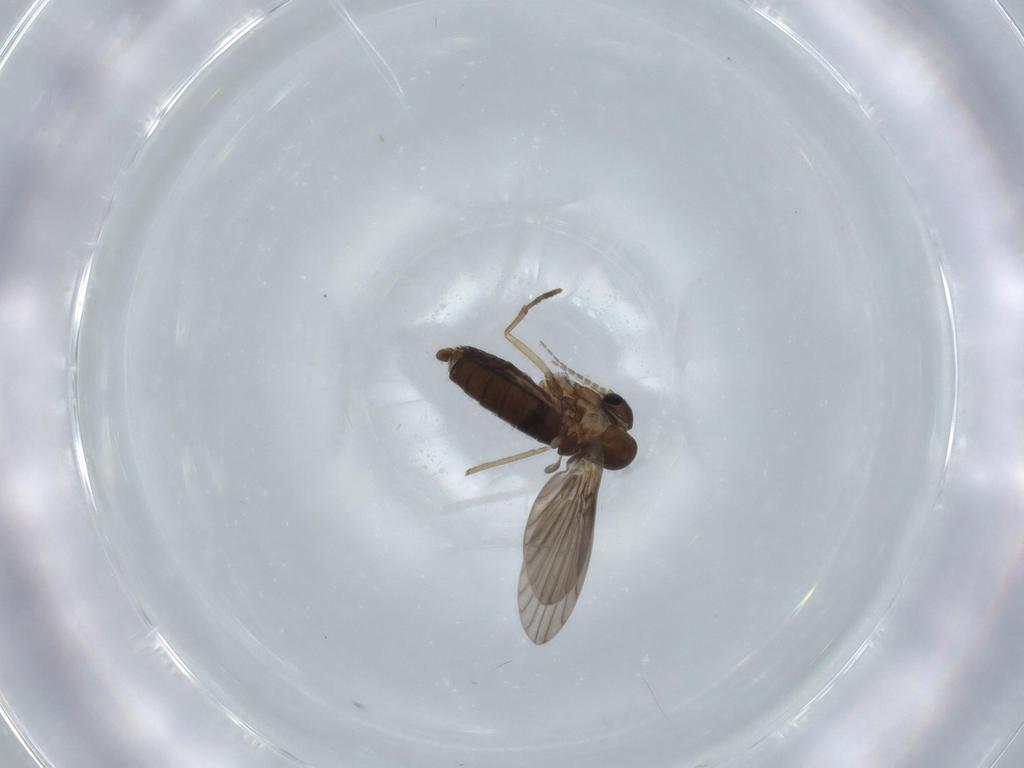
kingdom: Animalia
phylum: Arthropoda
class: Insecta
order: Diptera
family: Psychodidae
